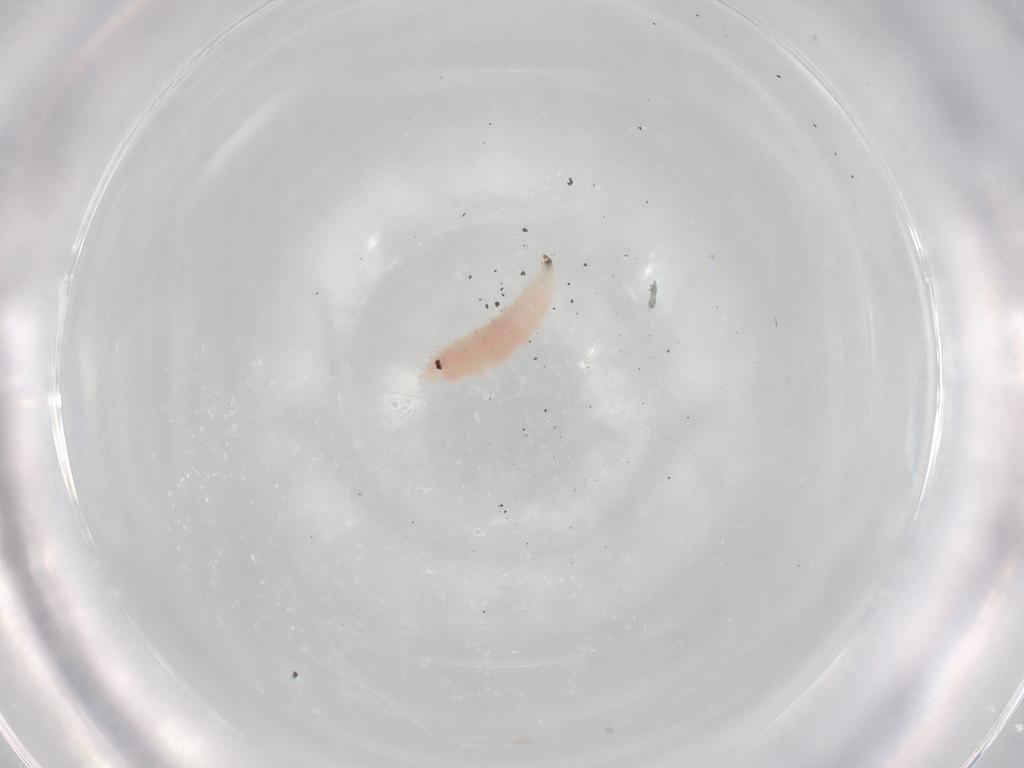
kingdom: Animalia
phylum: Arthropoda
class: Insecta
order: Diptera
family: Cecidomyiidae
